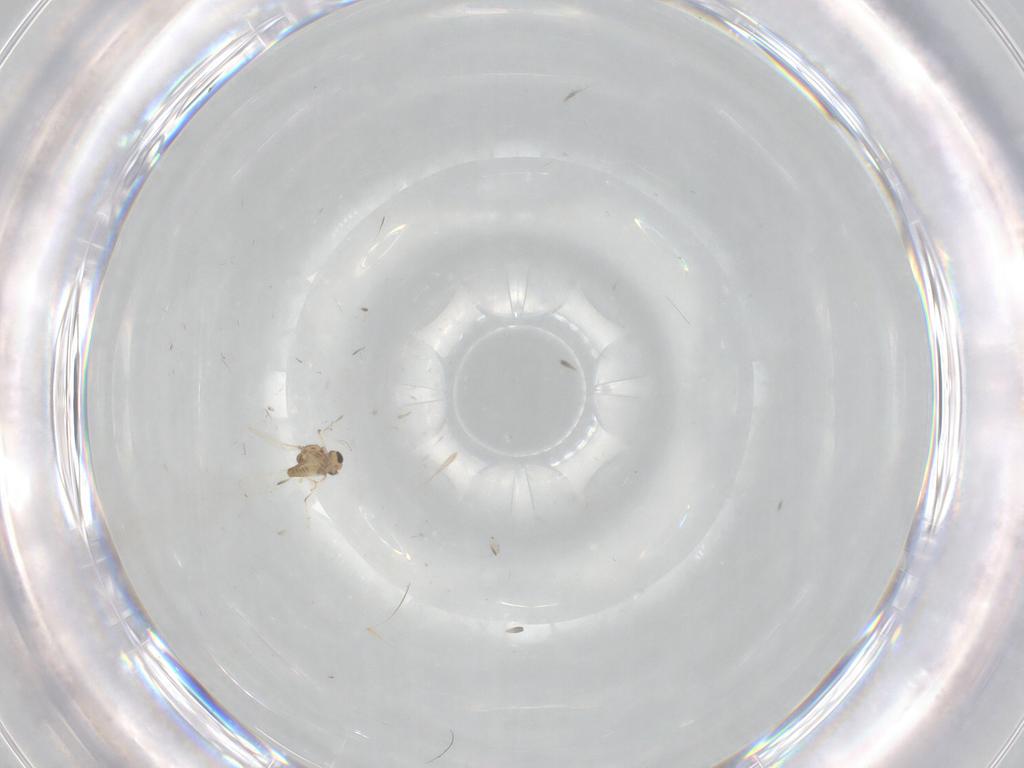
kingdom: Animalia
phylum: Arthropoda
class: Insecta
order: Diptera
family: Chironomidae
